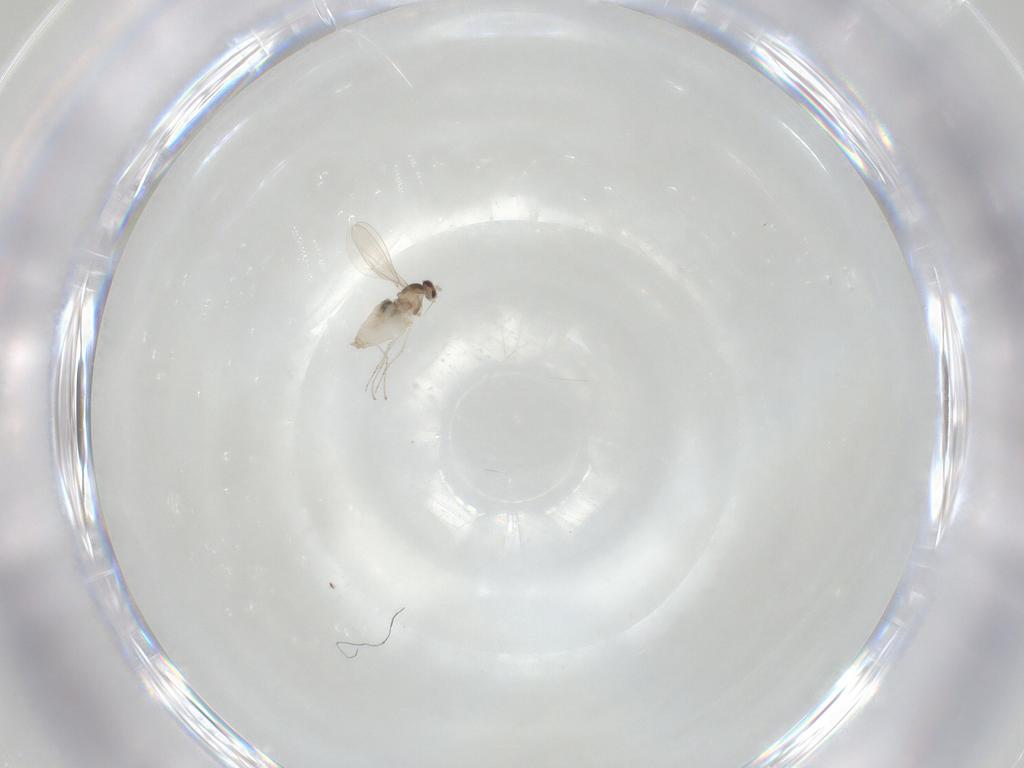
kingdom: Animalia
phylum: Arthropoda
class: Insecta
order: Diptera
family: Cecidomyiidae
